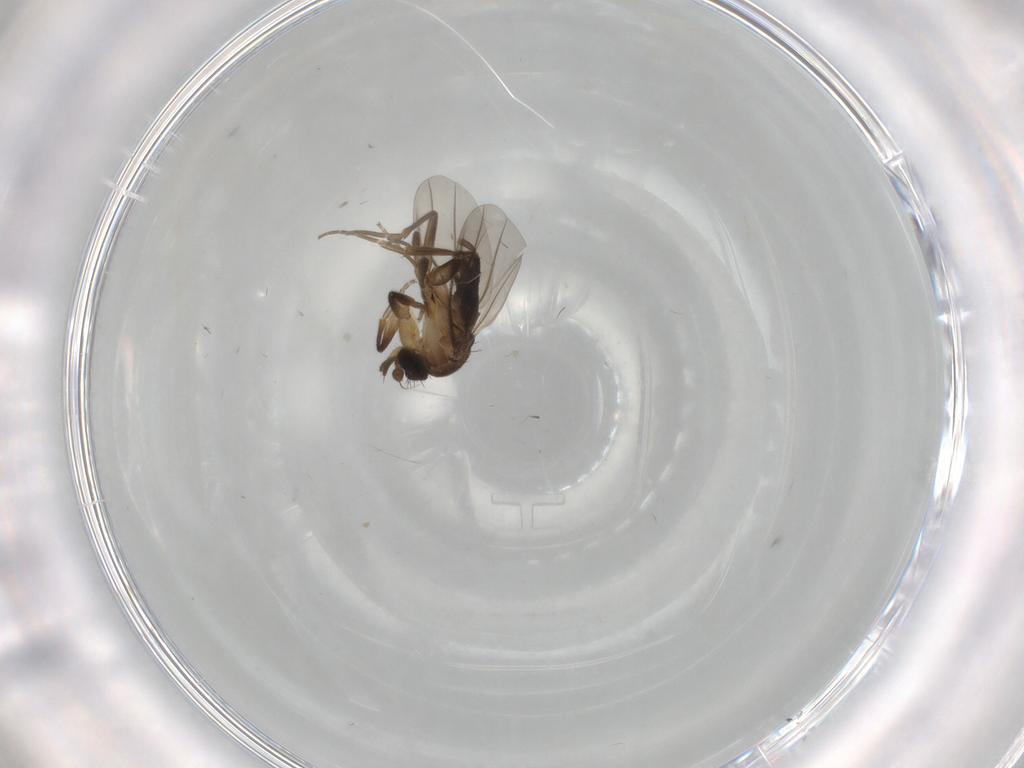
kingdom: Animalia
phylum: Arthropoda
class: Insecta
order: Diptera
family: Phoridae
